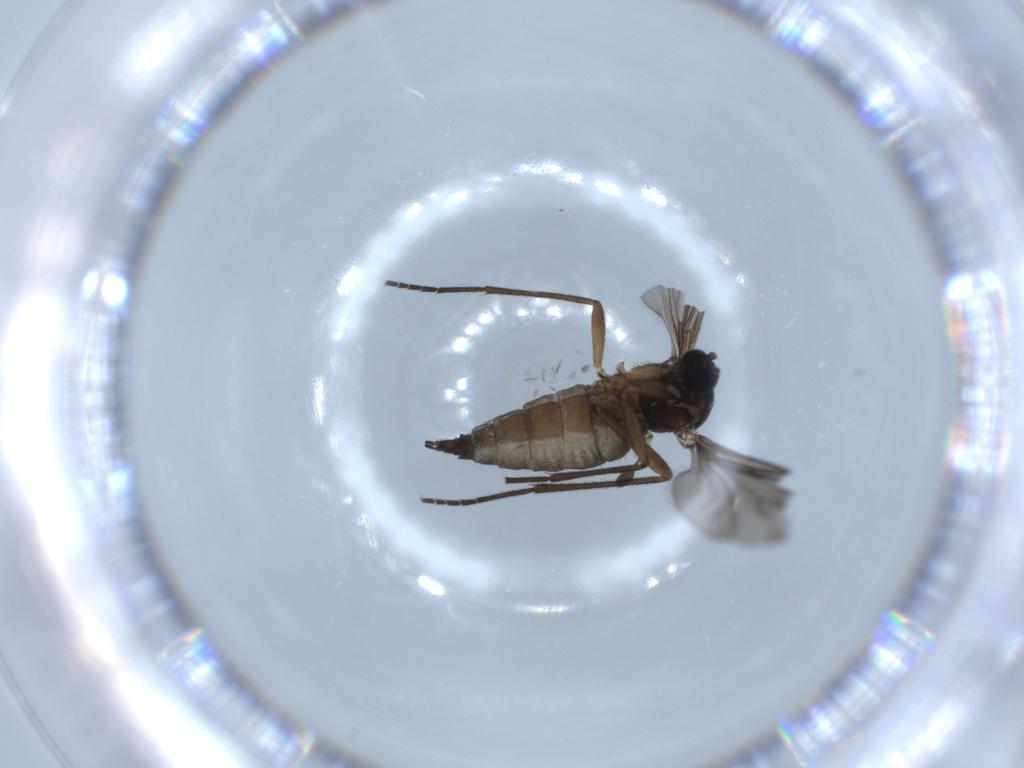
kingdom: Animalia
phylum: Arthropoda
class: Insecta
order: Diptera
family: Sciaridae
